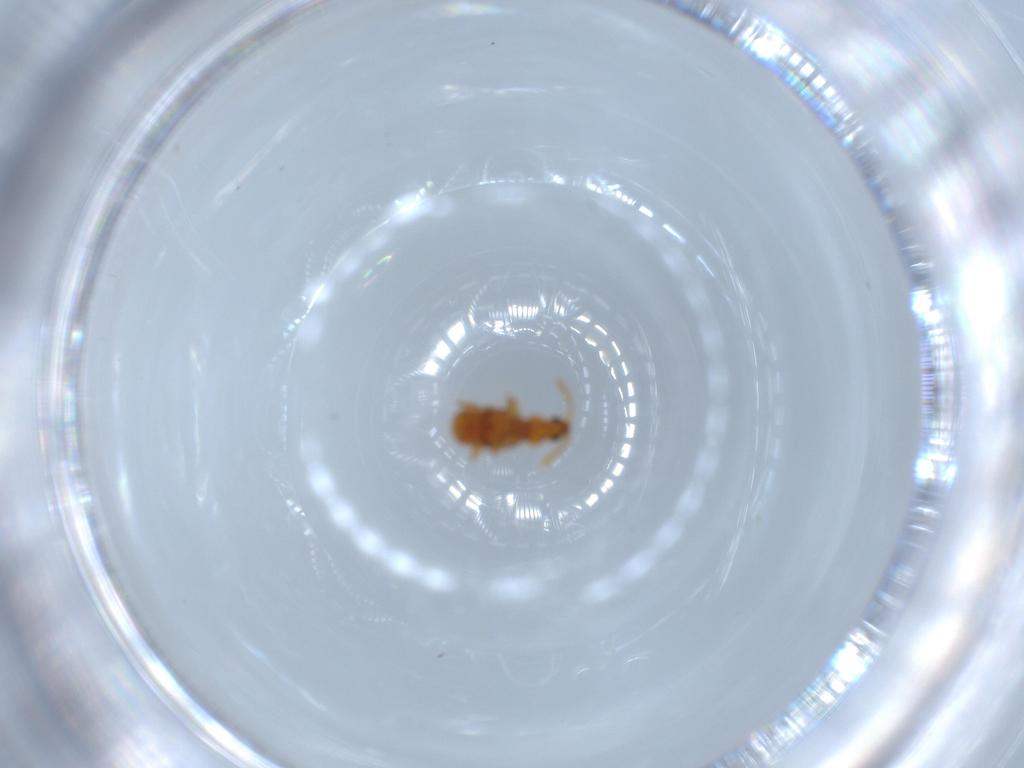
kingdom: Animalia
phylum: Arthropoda
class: Insecta
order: Coleoptera
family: Staphylinidae
